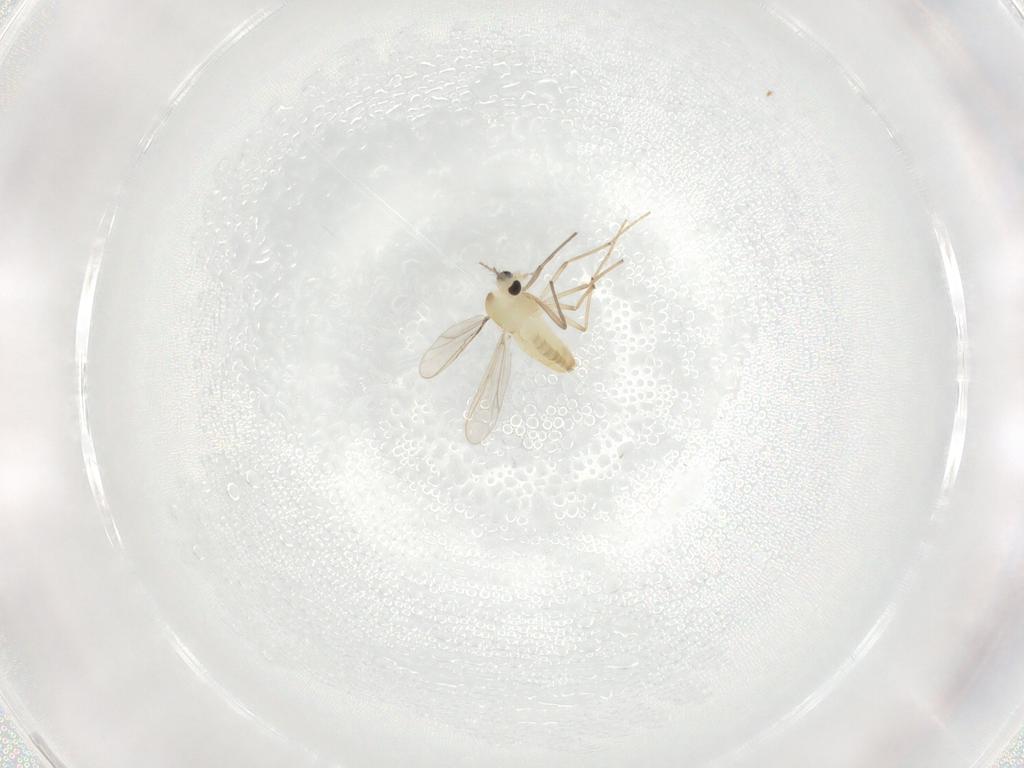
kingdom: Animalia
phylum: Arthropoda
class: Insecta
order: Diptera
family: Chironomidae
